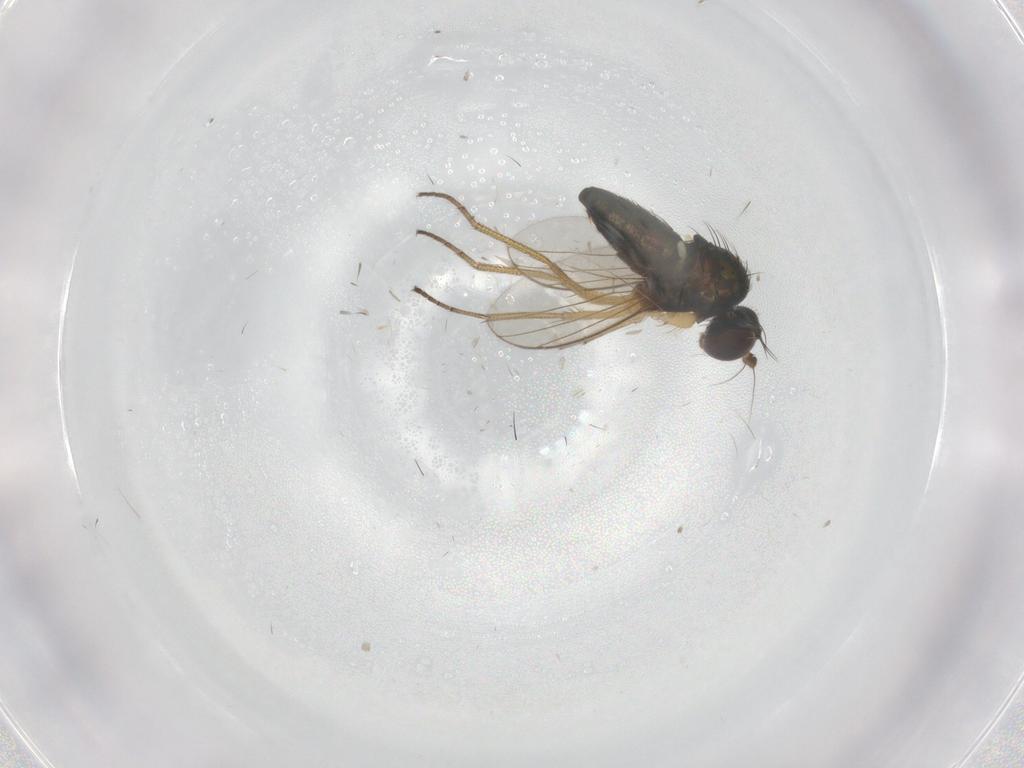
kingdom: Animalia
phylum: Arthropoda
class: Insecta
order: Diptera
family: Dolichopodidae
